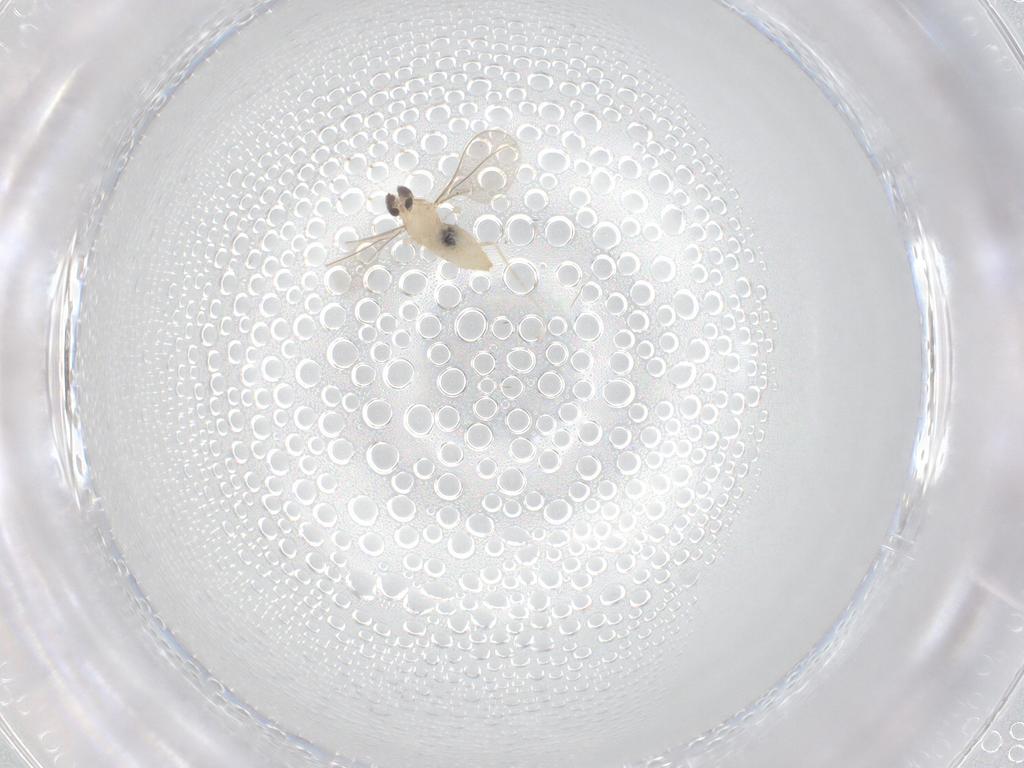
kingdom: Animalia
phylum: Arthropoda
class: Insecta
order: Diptera
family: Cecidomyiidae
